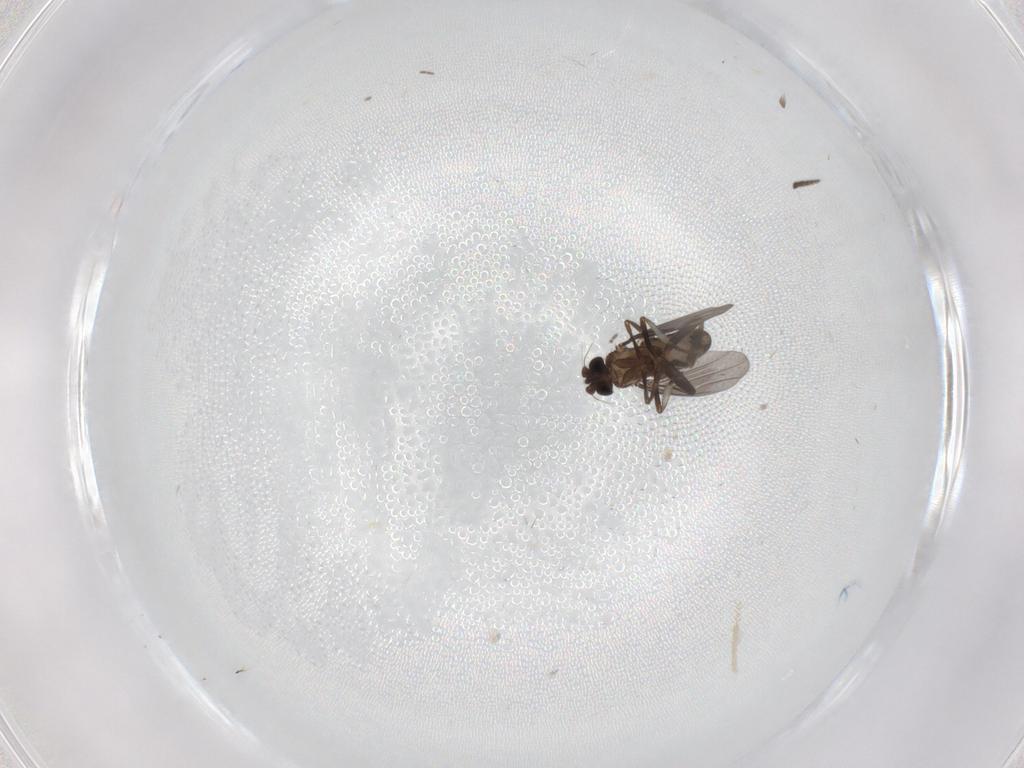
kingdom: Animalia
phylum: Arthropoda
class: Insecta
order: Diptera
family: Phoridae
